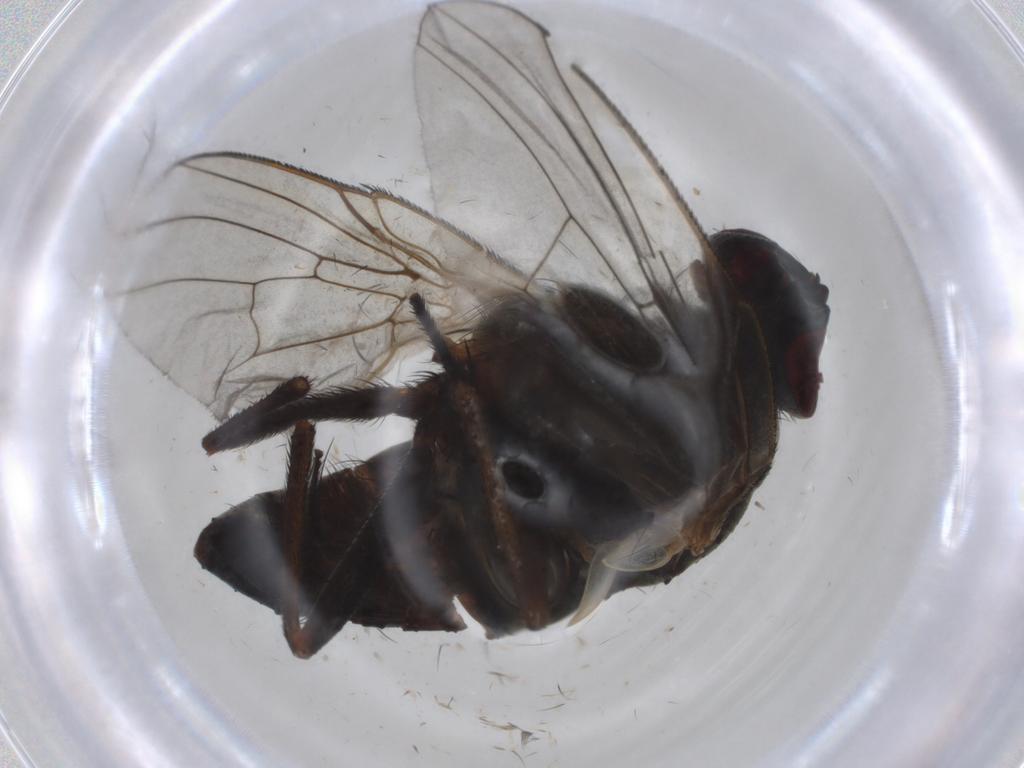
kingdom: Animalia
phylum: Arthropoda
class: Insecta
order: Diptera
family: Muscidae
